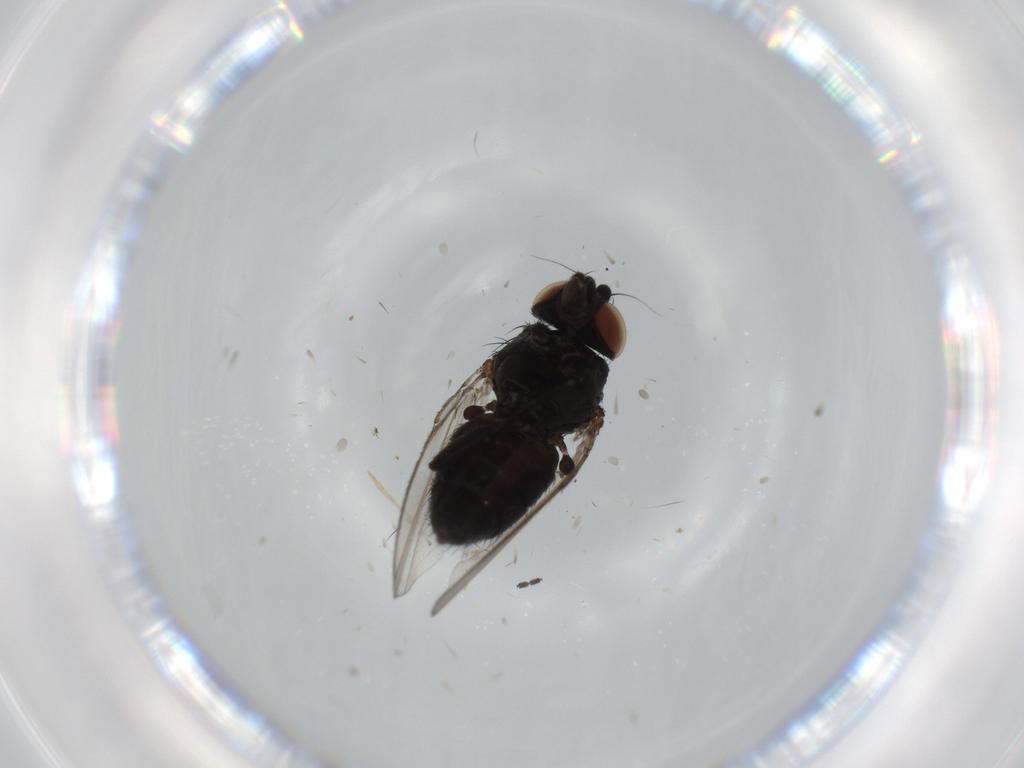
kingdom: Animalia
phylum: Arthropoda
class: Insecta
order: Diptera
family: Milichiidae
